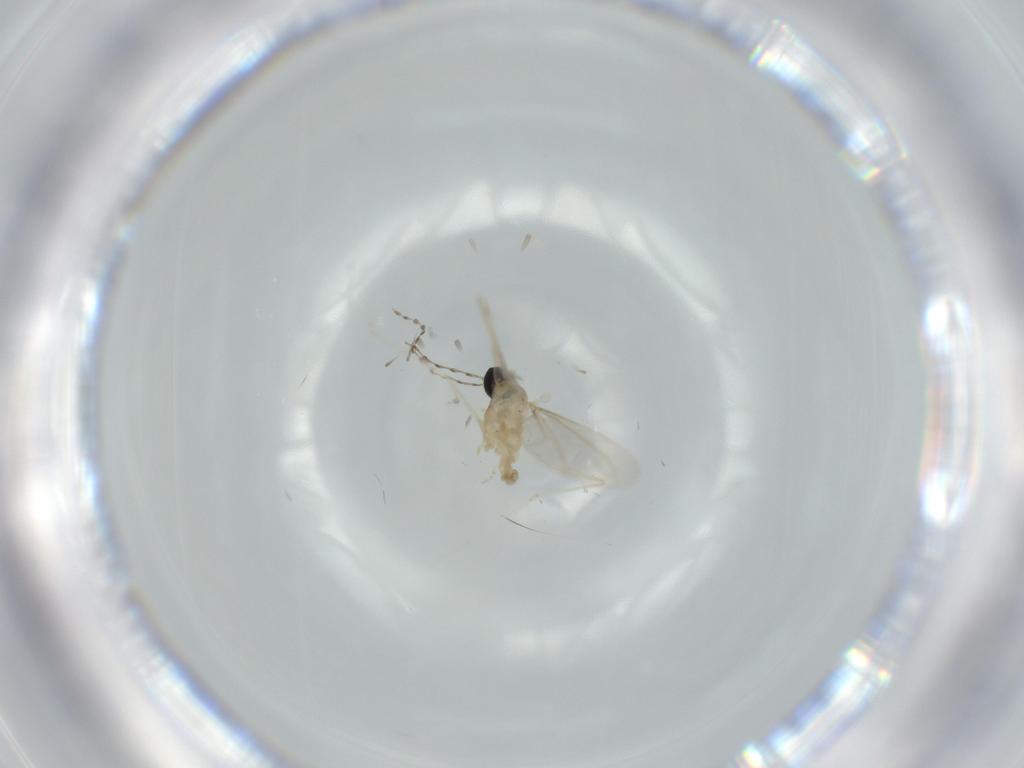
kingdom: Animalia
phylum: Arthropoda
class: Insecta
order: Diptera
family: Cecidomyiidae
